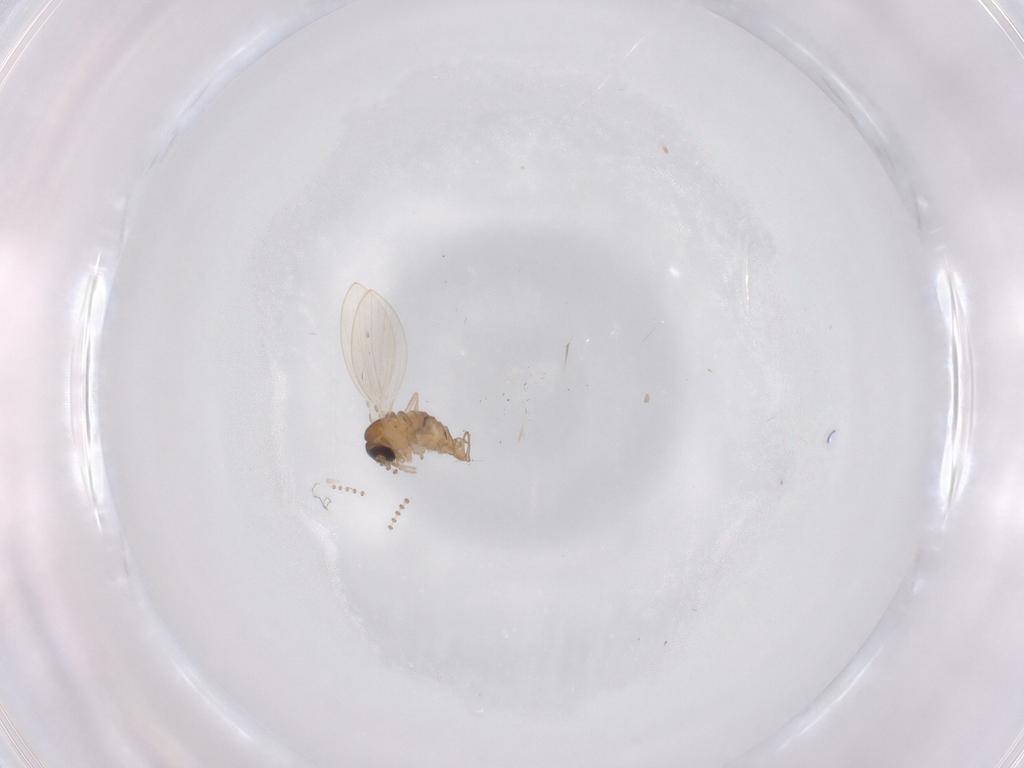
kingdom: Animalia
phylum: Arthropoda
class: Insecta
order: Diptera
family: Psychodidae
